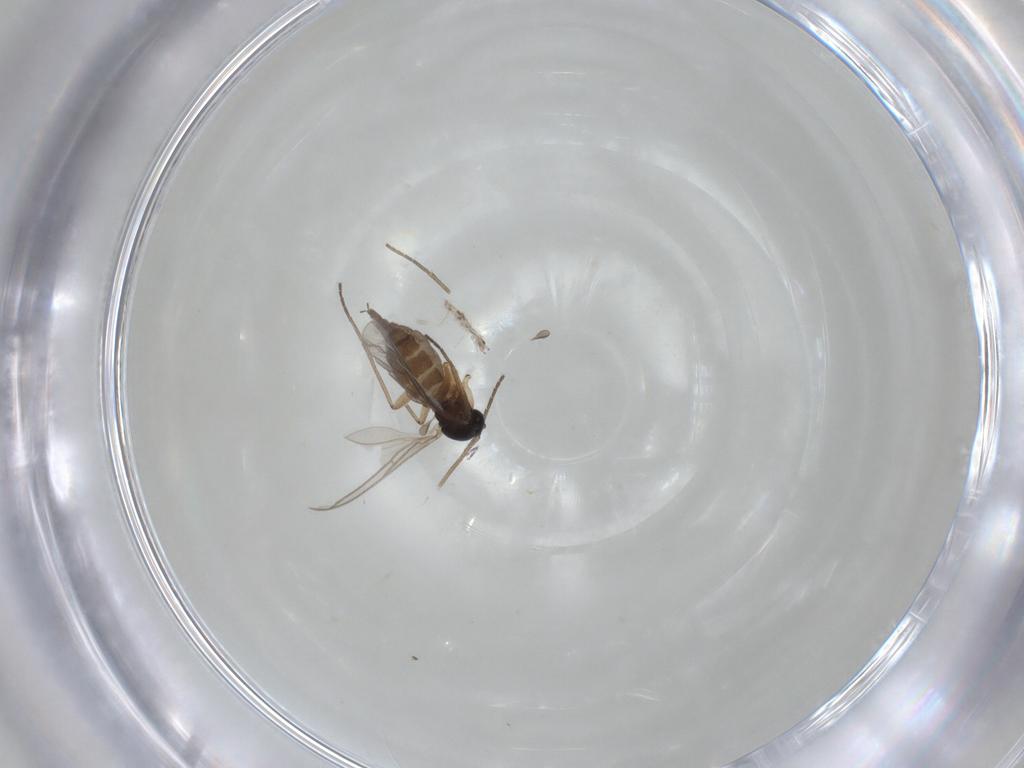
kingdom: Animalia
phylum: Arthropoda
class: Collembola
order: Entomobryomorpha
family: Entomobryidae
